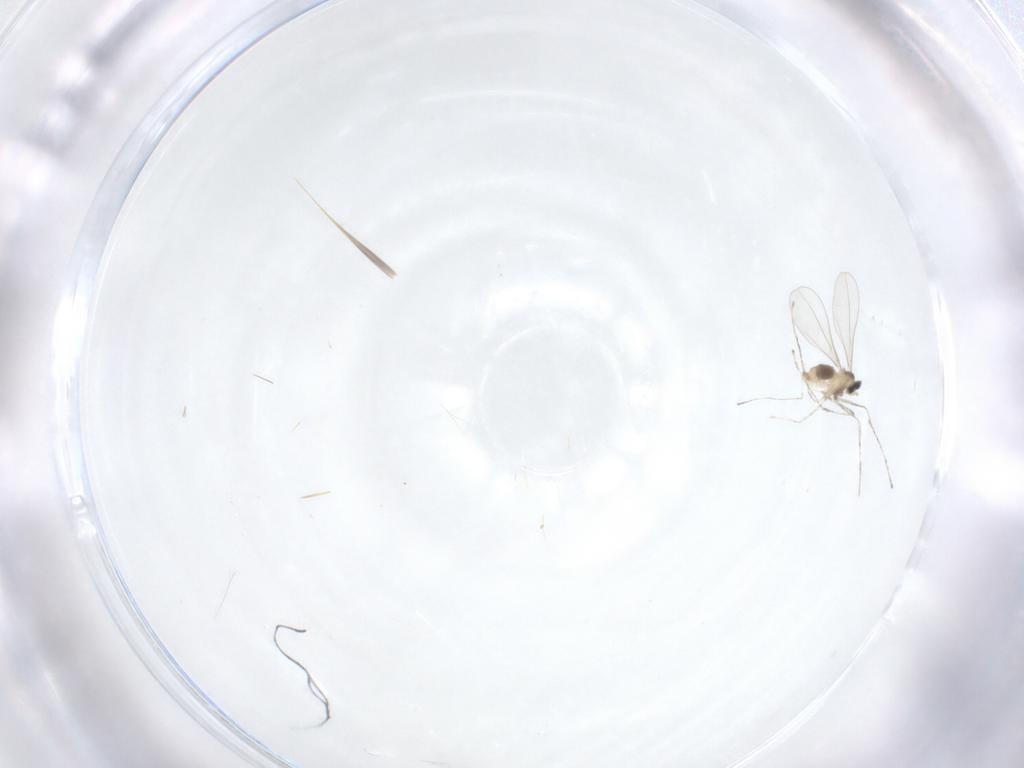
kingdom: Animalia
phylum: Arthropoda
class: Insecta
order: Diptera
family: Cecidomyiidae
